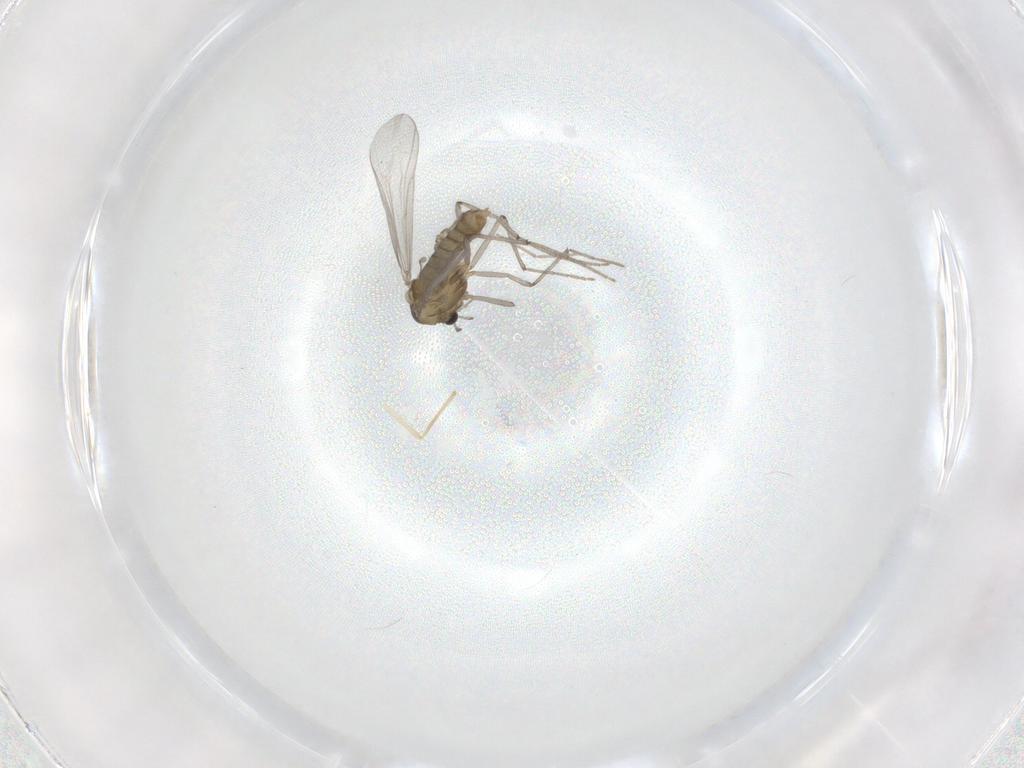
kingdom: Animalia
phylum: Arthropoda
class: Insecta
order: Diptera
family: Chironomidae
